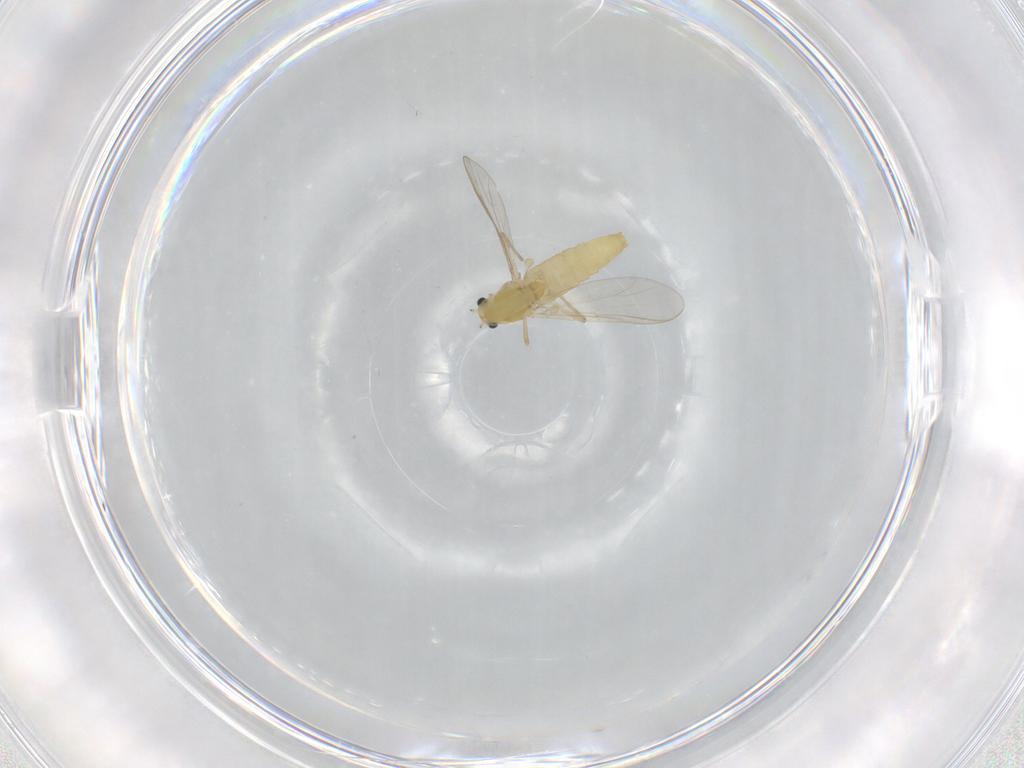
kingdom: Animalia
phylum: Arthropoda
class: Insecta
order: Diptera
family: Chironomidae
